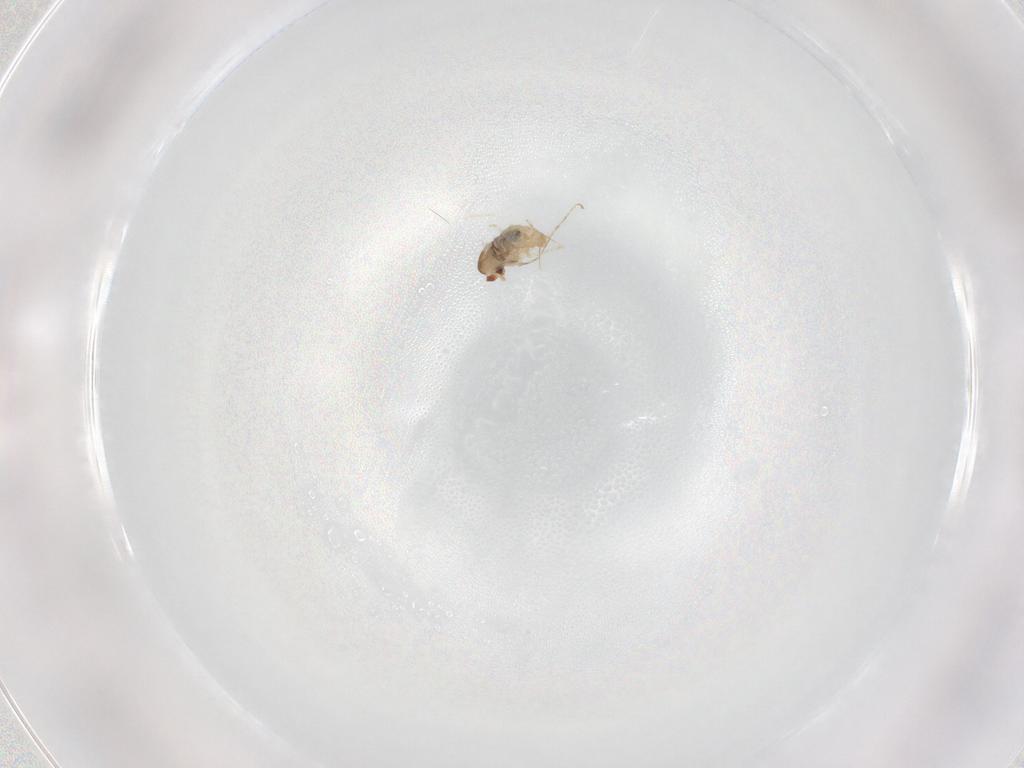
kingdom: Animalia
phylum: Arthropoda
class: Insecta
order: Diptera
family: Cecidomyiidae
